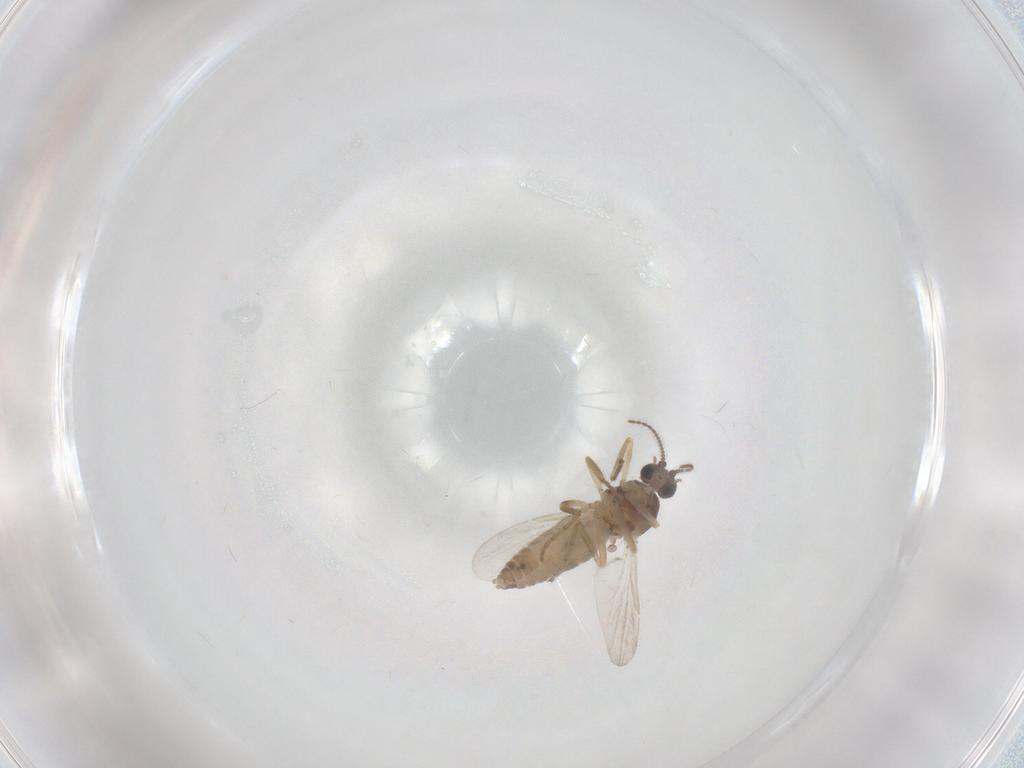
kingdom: Animalia
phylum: Arthropoda
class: Insecta
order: Diptera
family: Ceratopogonidae
